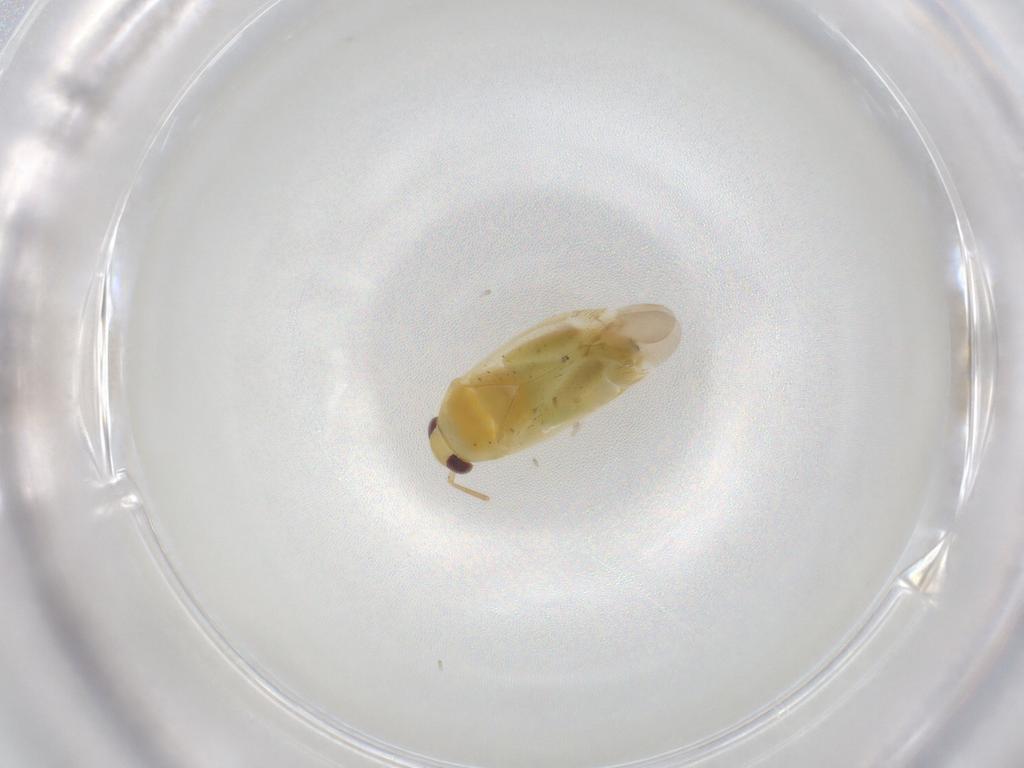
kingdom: Animalia
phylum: Arthropoda
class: Insecta
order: Hemiptera
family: Miridae
